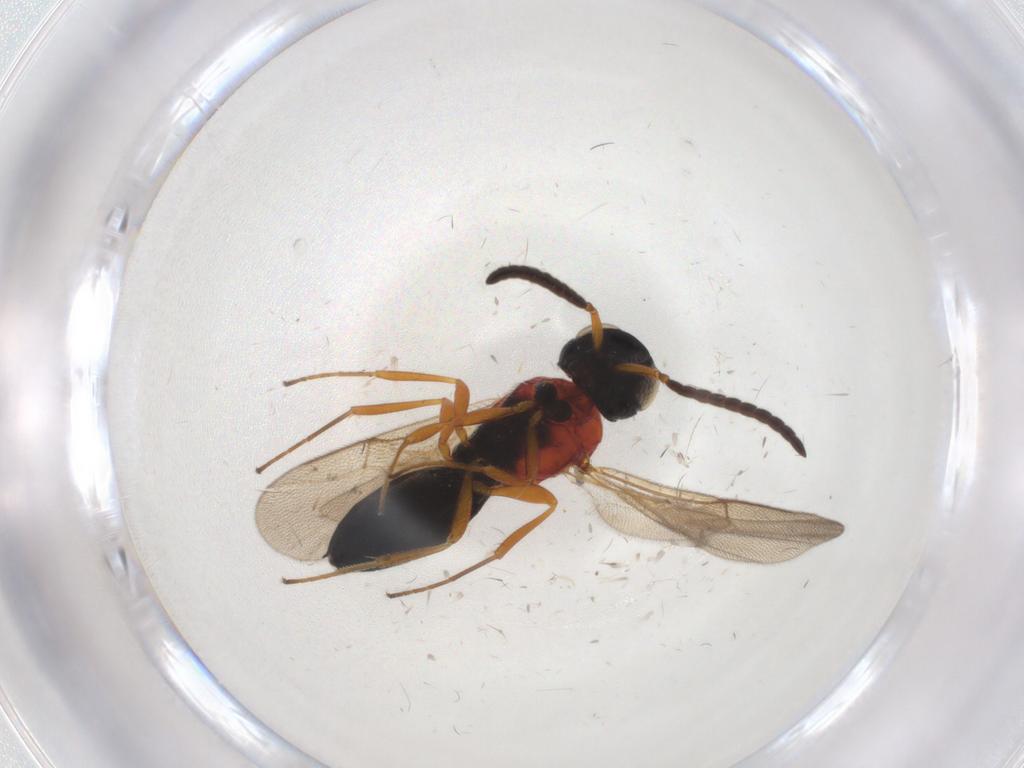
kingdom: Animalia
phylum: Arthropoda
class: Insecta
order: Hymenoptera
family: Scelionidae
